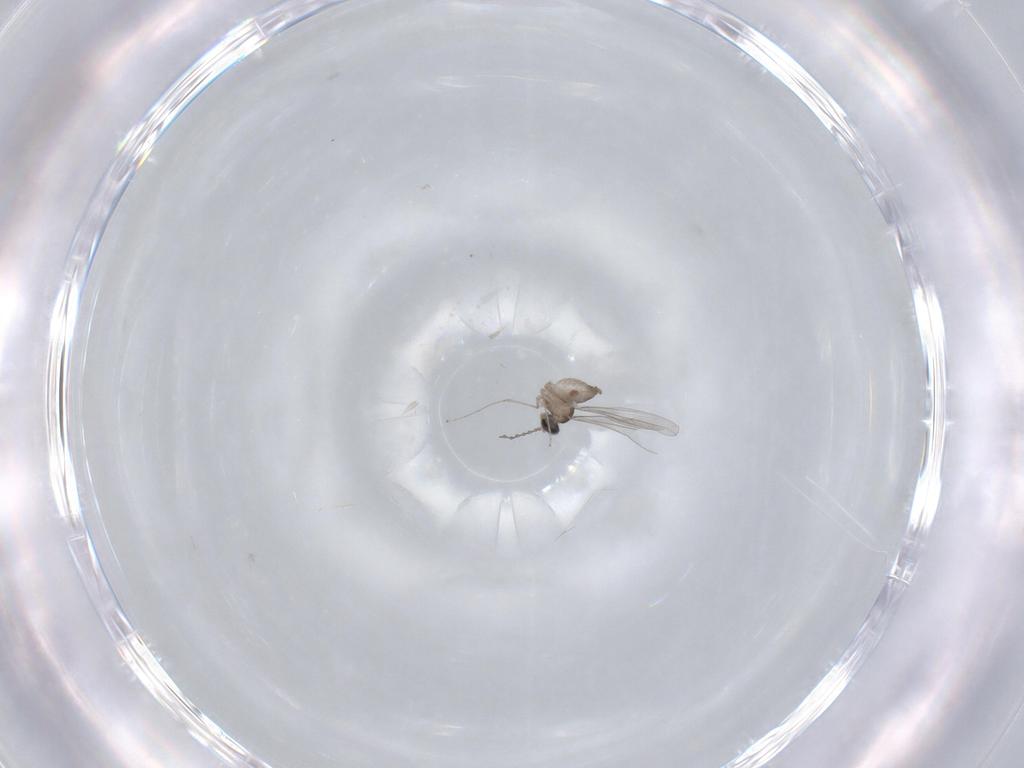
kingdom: Animalia
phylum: Arthropoda
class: Insecta
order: Diptera
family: Cecidomyiidae
